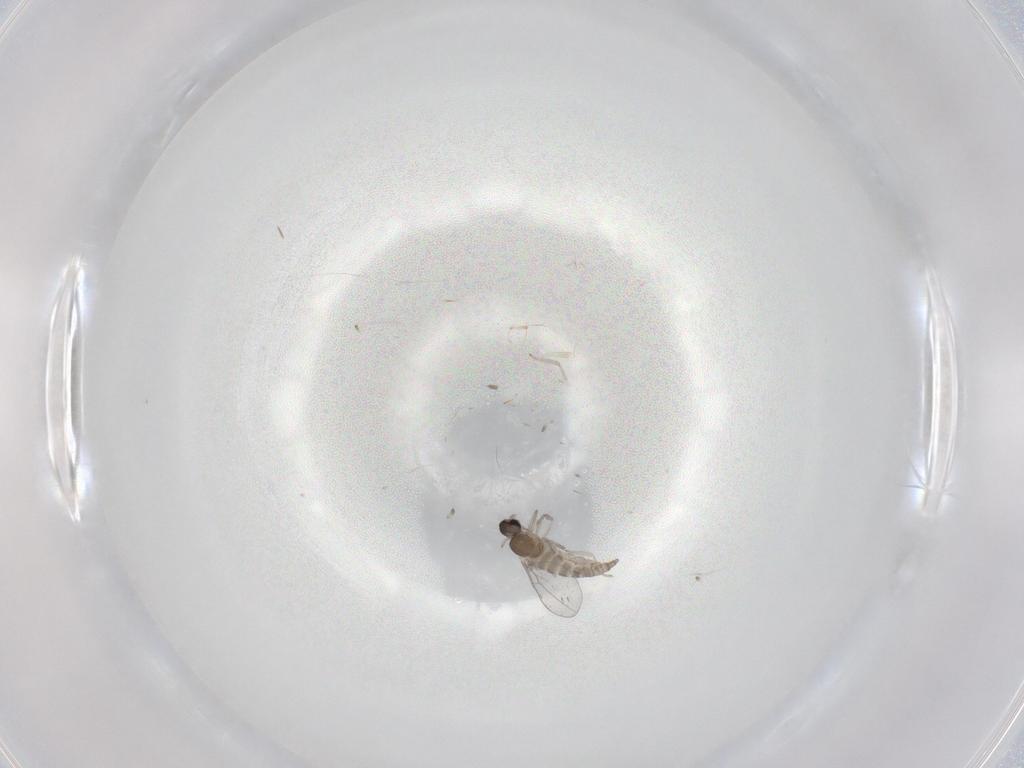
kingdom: Animalia
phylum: Arthropoda
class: Insecta
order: Diptera
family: Cecidomyiidae
